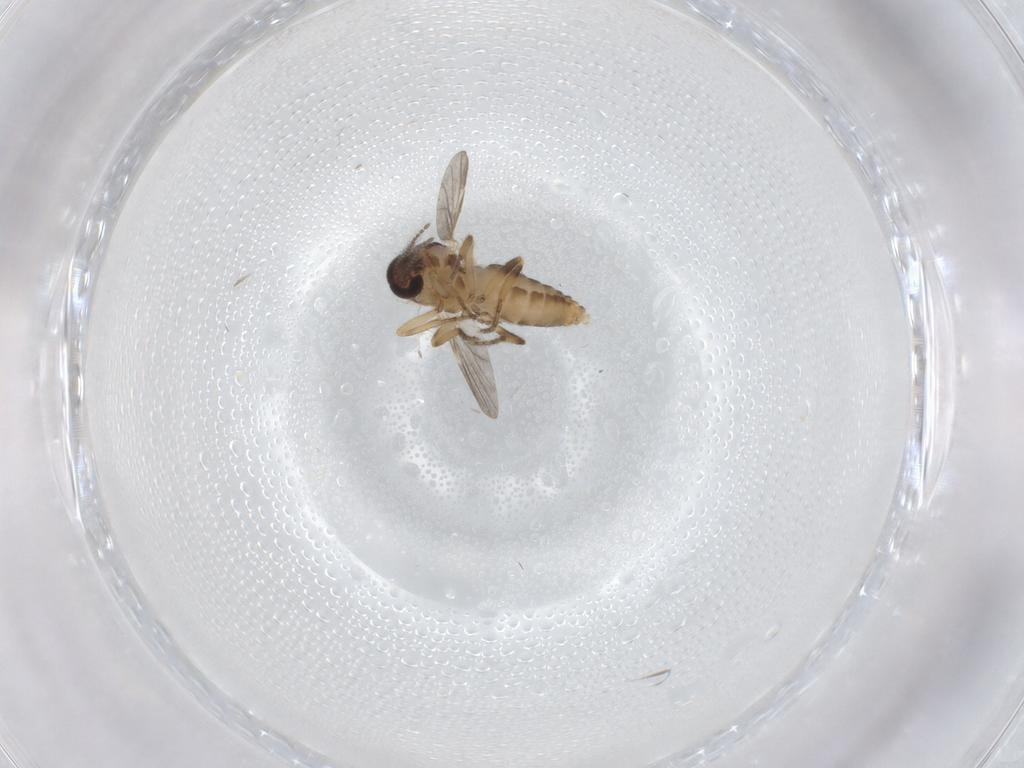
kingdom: Animalia
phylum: Arthropoda
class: Insecta
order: Diptera
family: Ceratopogonidae
